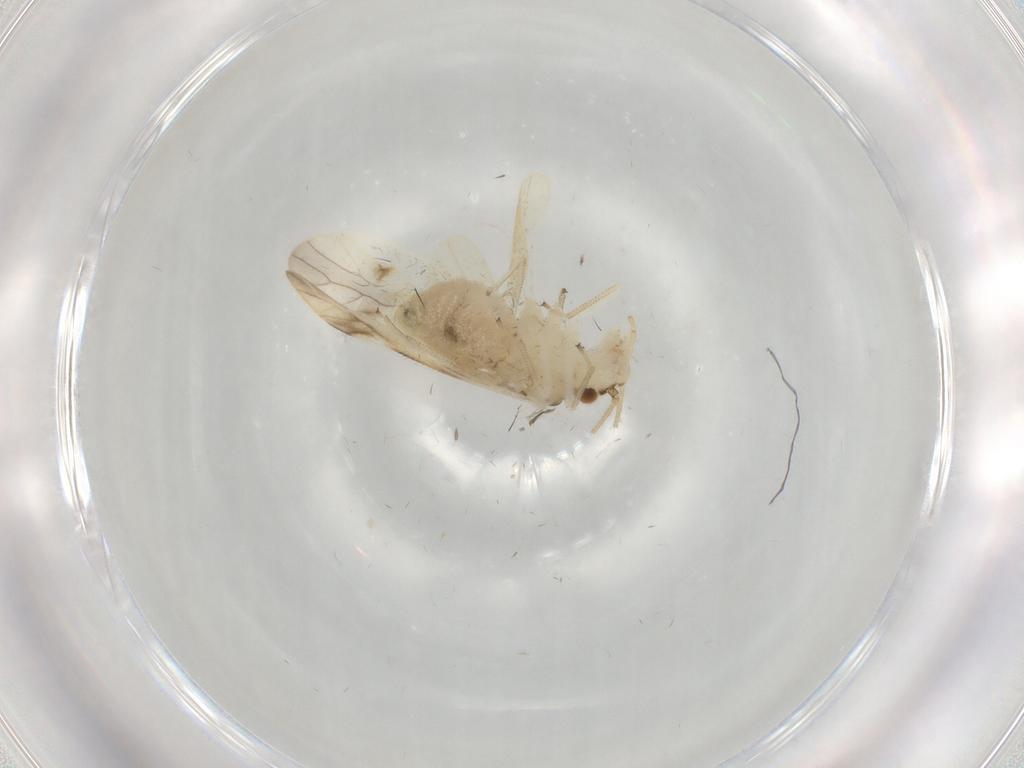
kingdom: Animalia
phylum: Arthropoda
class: Insecta
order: Psocodea
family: Caeciliusidae
